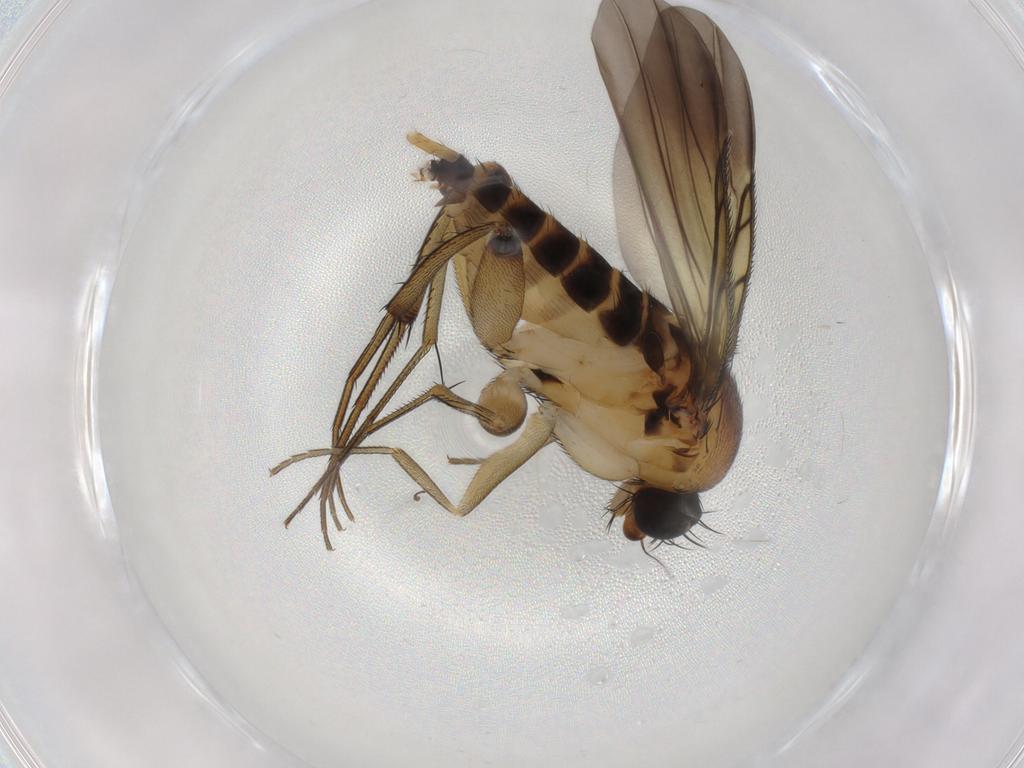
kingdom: Animalia
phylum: Arthropoda
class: Insecta
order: Diptera
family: Phoridae
